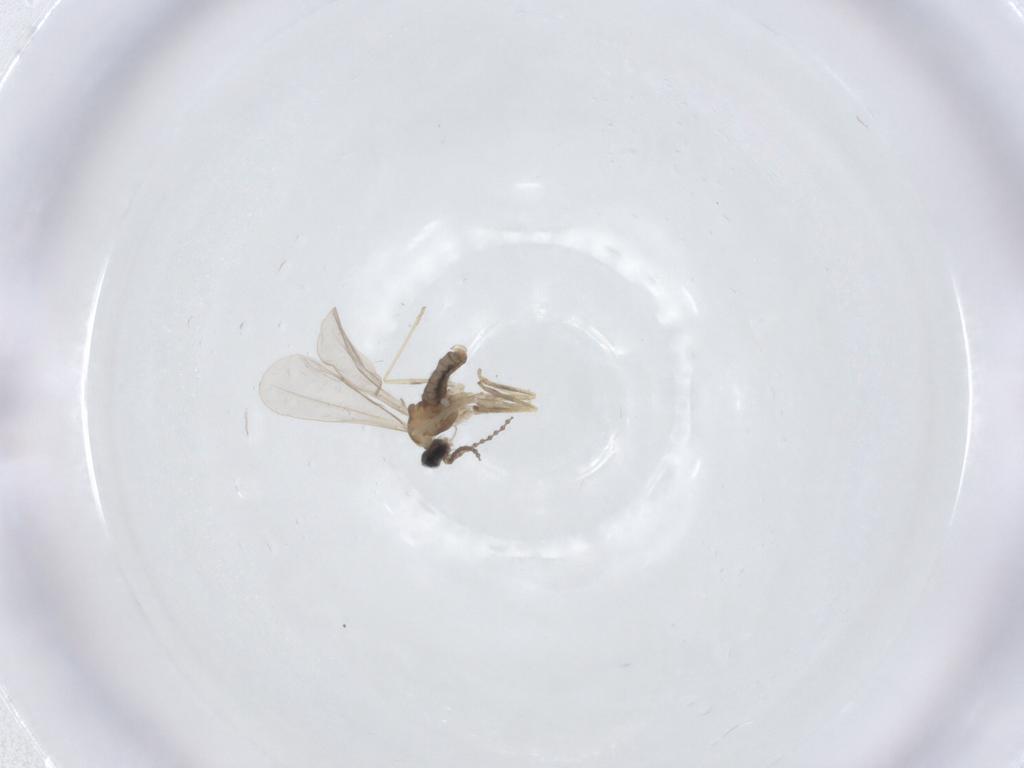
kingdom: Animalia
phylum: Arthropoda
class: Insecta
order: Diptera
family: Cecidomyiidae
